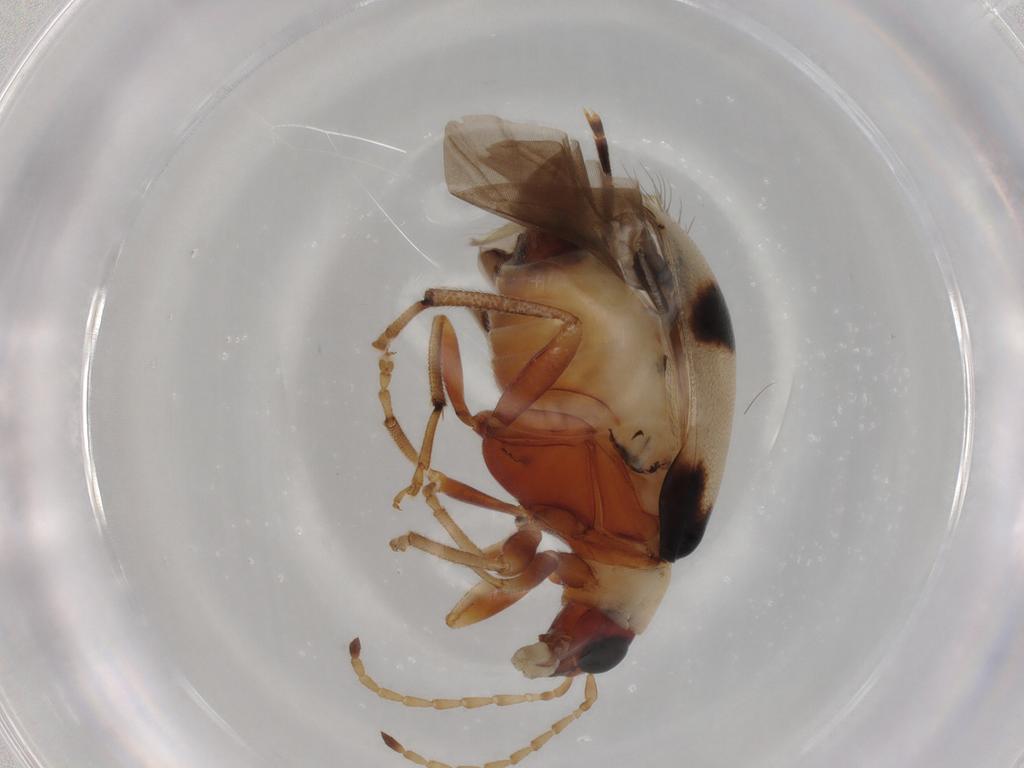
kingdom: Animalia
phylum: Arthropoda
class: Insecta
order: Coleoptera
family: Chrysomelidae
